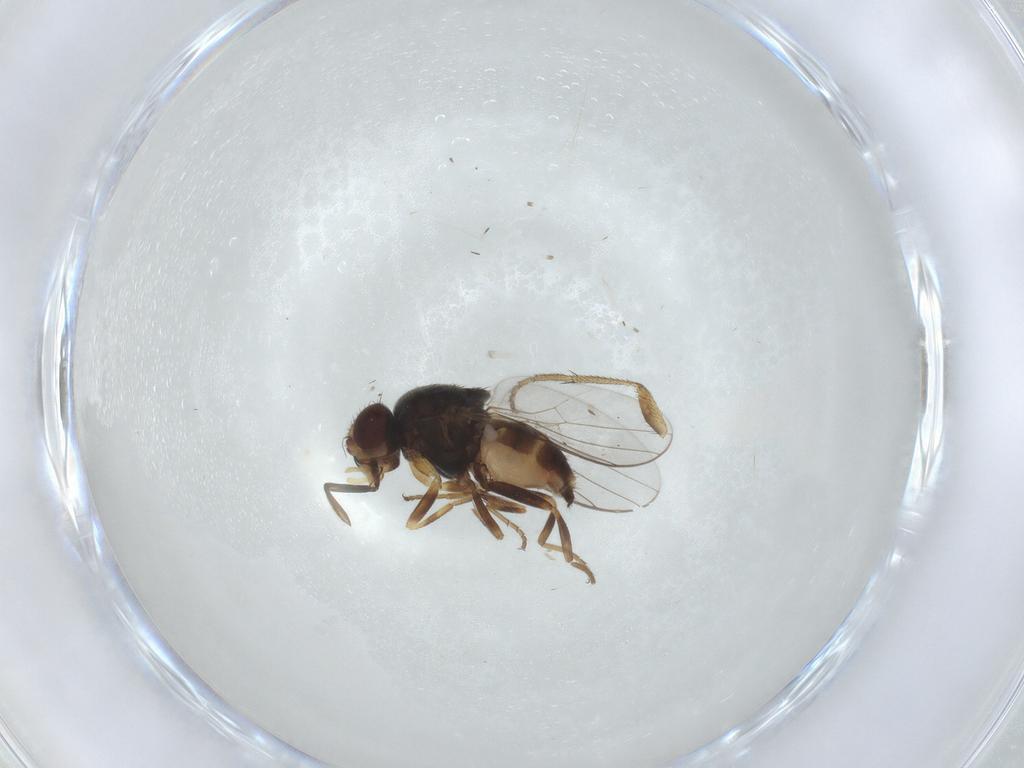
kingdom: Animalia
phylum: Arthropoda
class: Insecta
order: Diptera
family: Chloropidae
